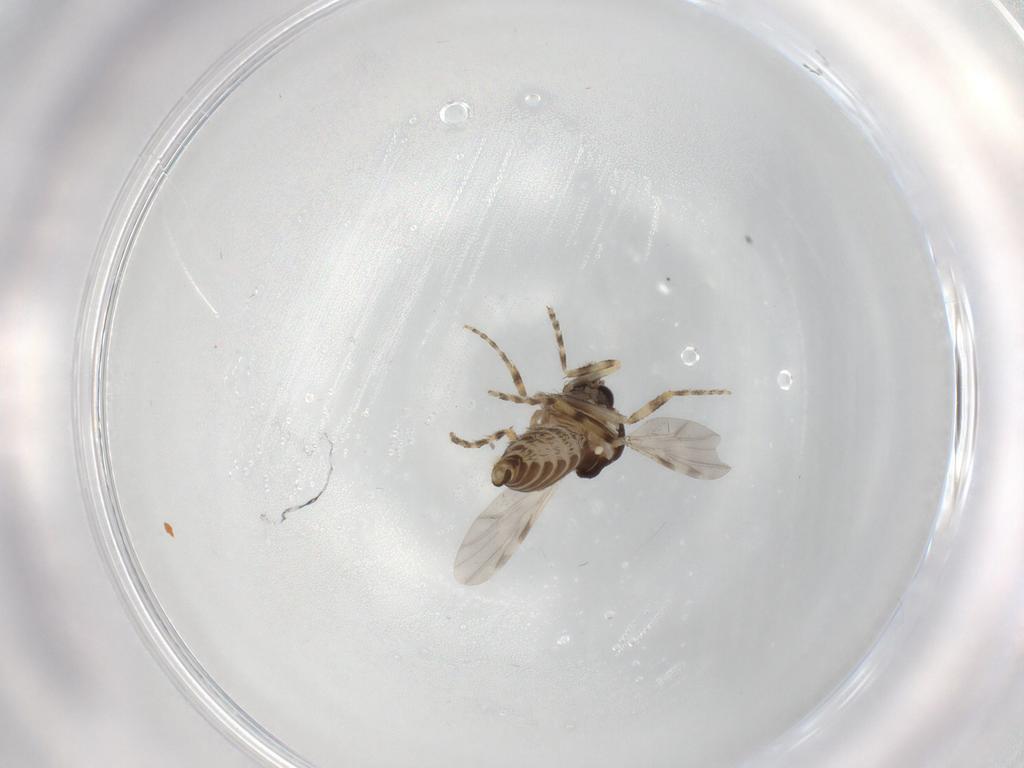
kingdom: Animalia
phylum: Arthropoda
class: Insecta
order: Diptera
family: Ceratopogonidae
